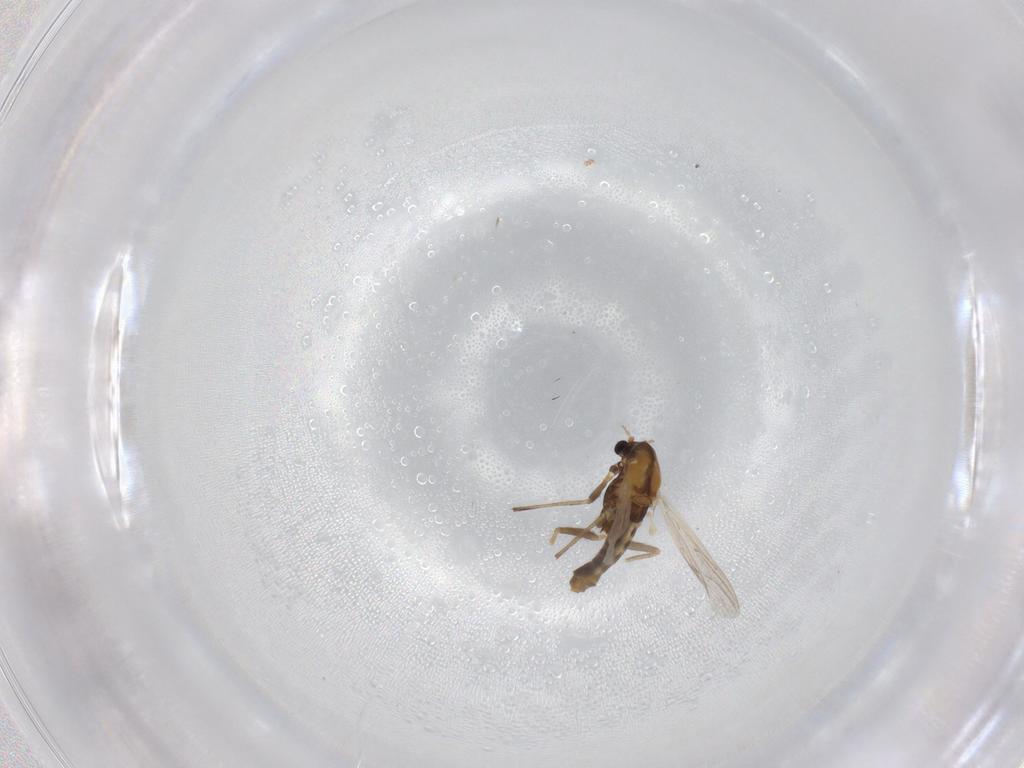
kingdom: Animalia
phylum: Arthropoda
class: Insecta
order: Diptera
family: Chironomidae
